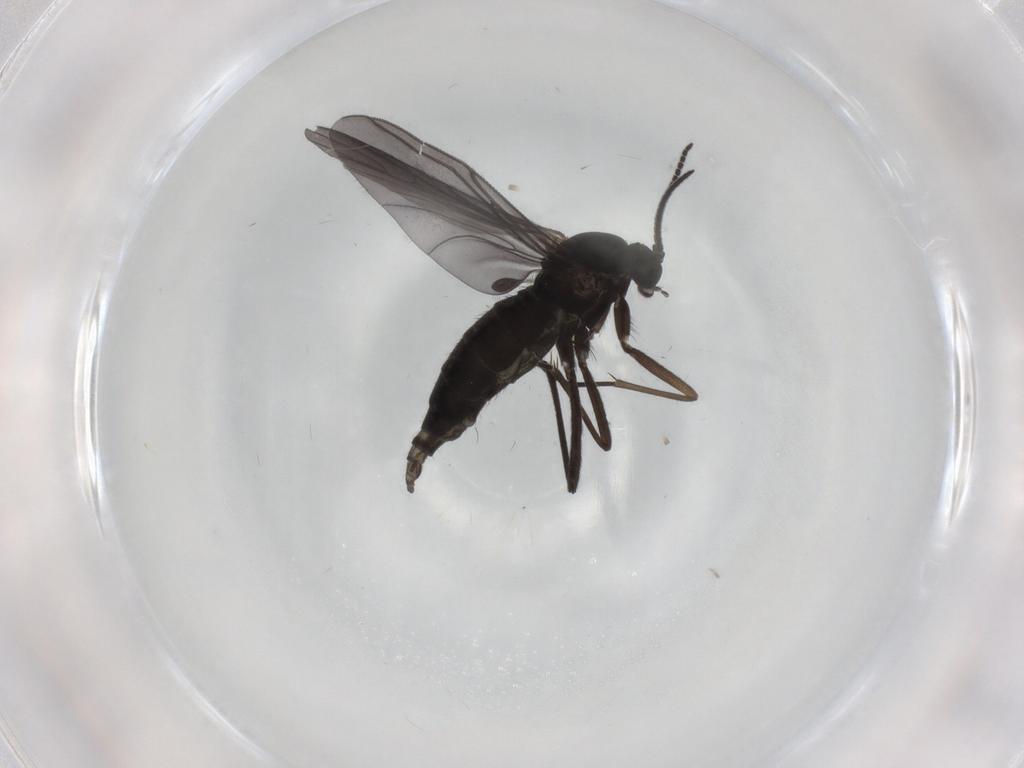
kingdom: Animalia
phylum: Arthropoda
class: Insecta
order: Diptera
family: Sciaridae
